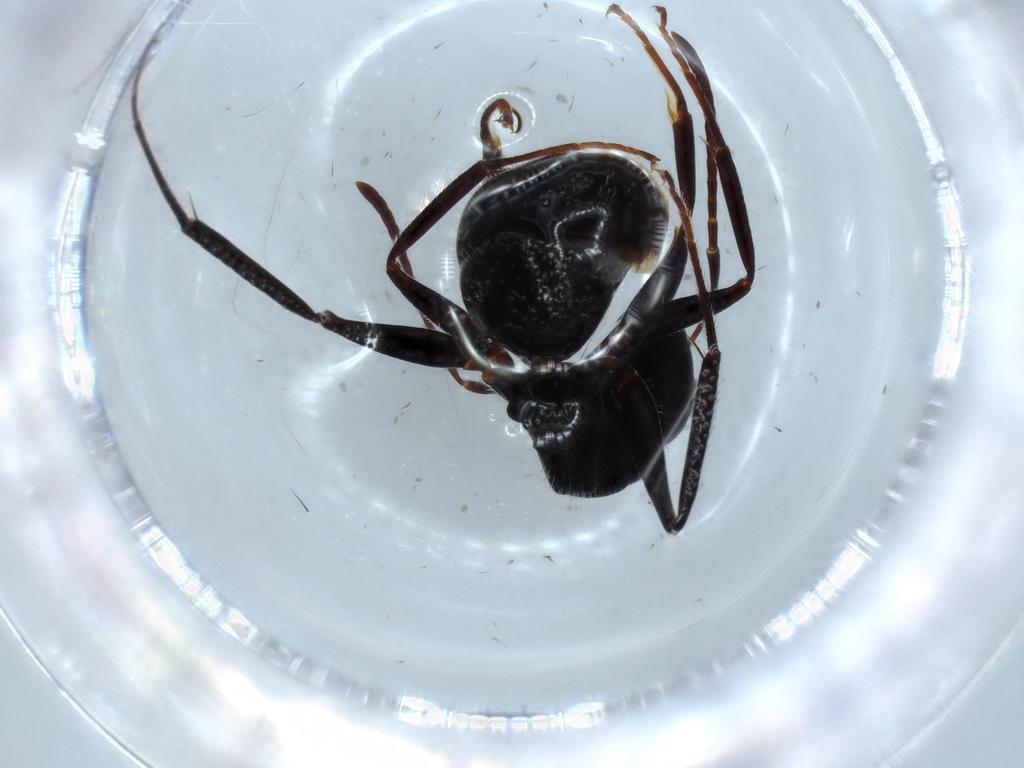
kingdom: Animalia
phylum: Arthropoda
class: Insecta
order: Hymenoptera
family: Formicidae
